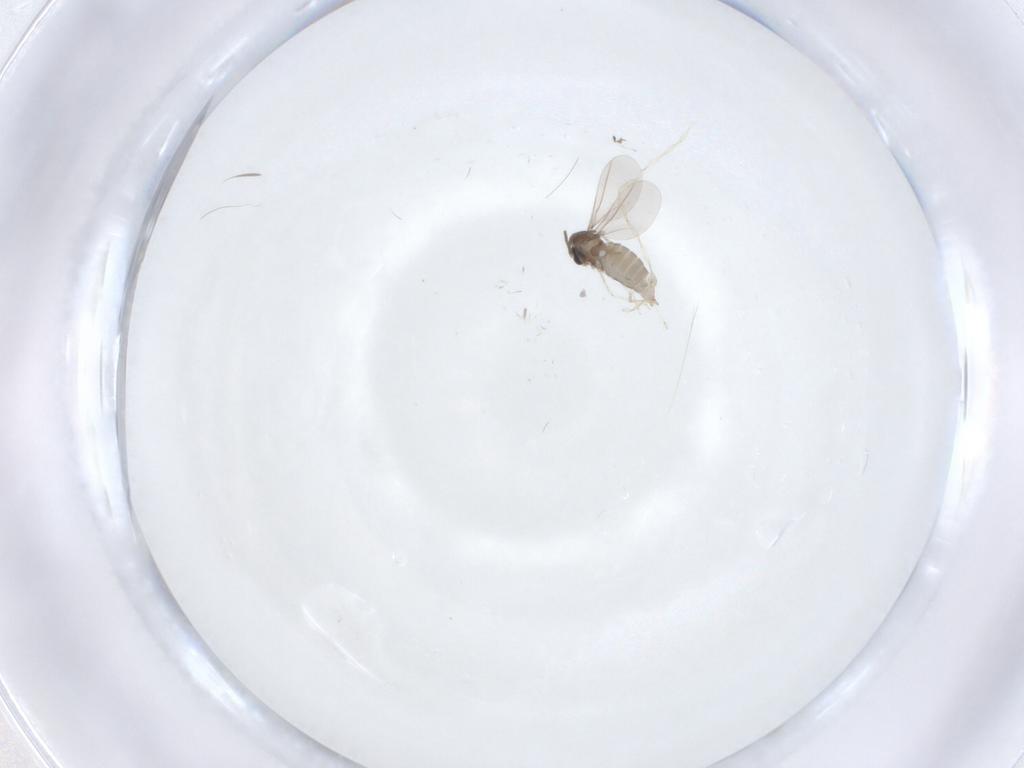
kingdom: Animalia
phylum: Arthropoda
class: Insecta
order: Diptera
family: Cecidomyiidae
